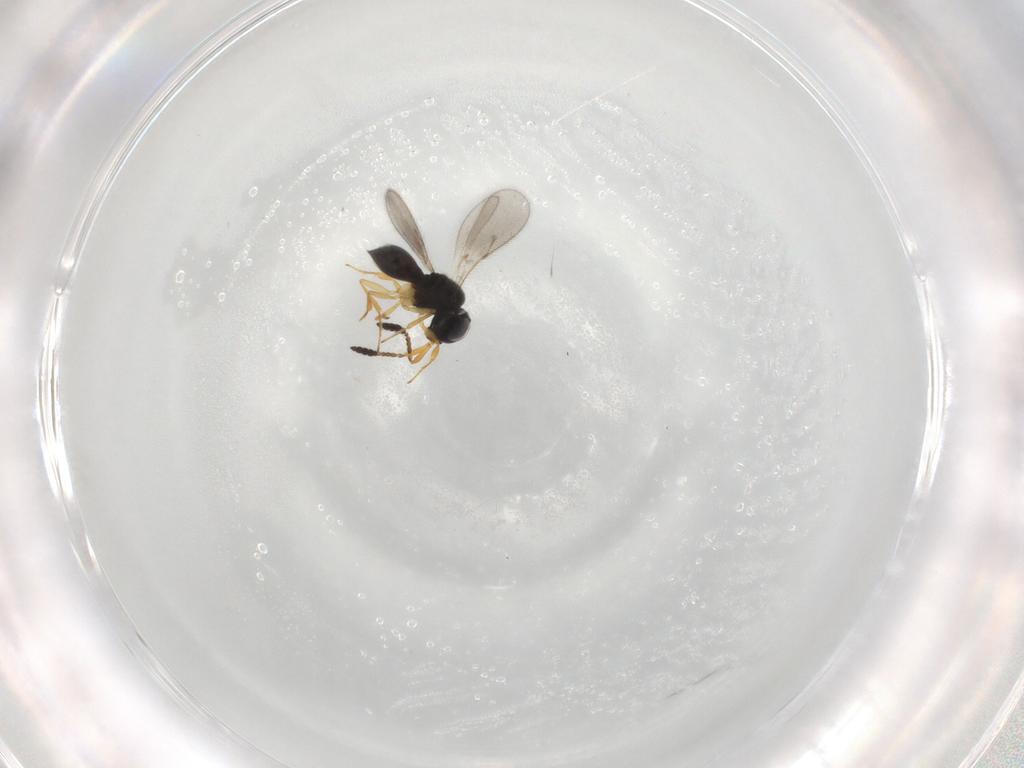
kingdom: Animalia
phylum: Arthropoda
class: Insecta
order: Hymenoptera
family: Scelionidae
